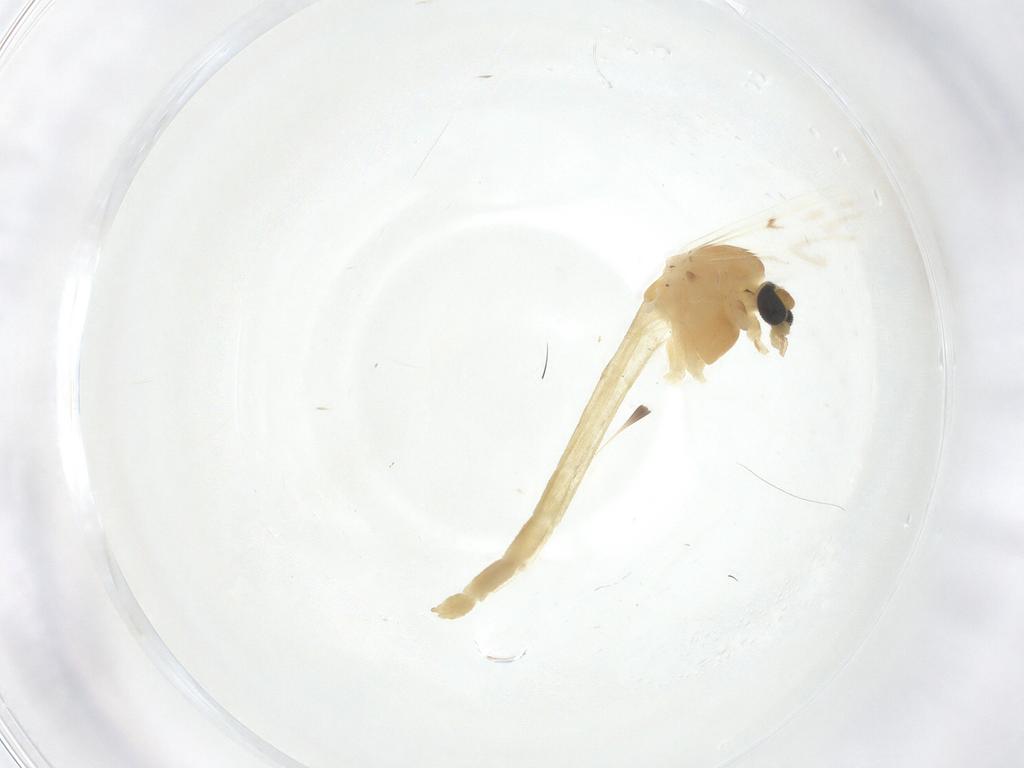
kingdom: Animalia
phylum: Arthropoda
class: Insecta
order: Diptera
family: Chironomidae
